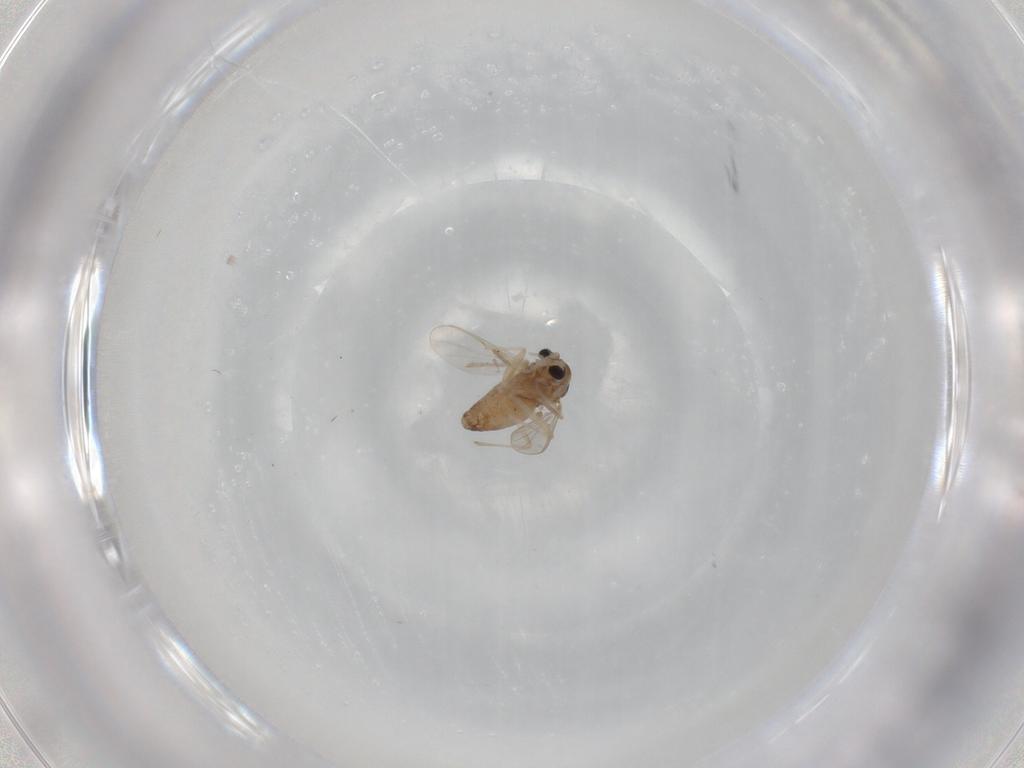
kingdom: Animalia
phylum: Arthropoda
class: Insecta
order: Diptera
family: Chironomidae
